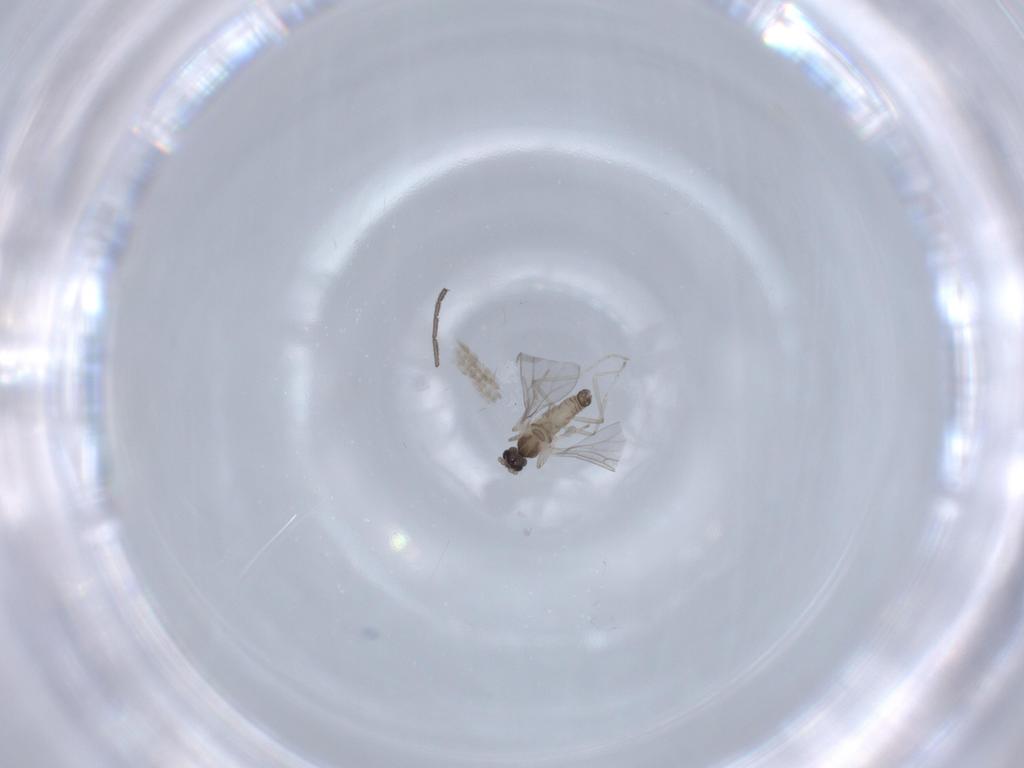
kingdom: Animalia
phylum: Arthropoda
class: Insecta
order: Diptera
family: Cecidomyiidae
